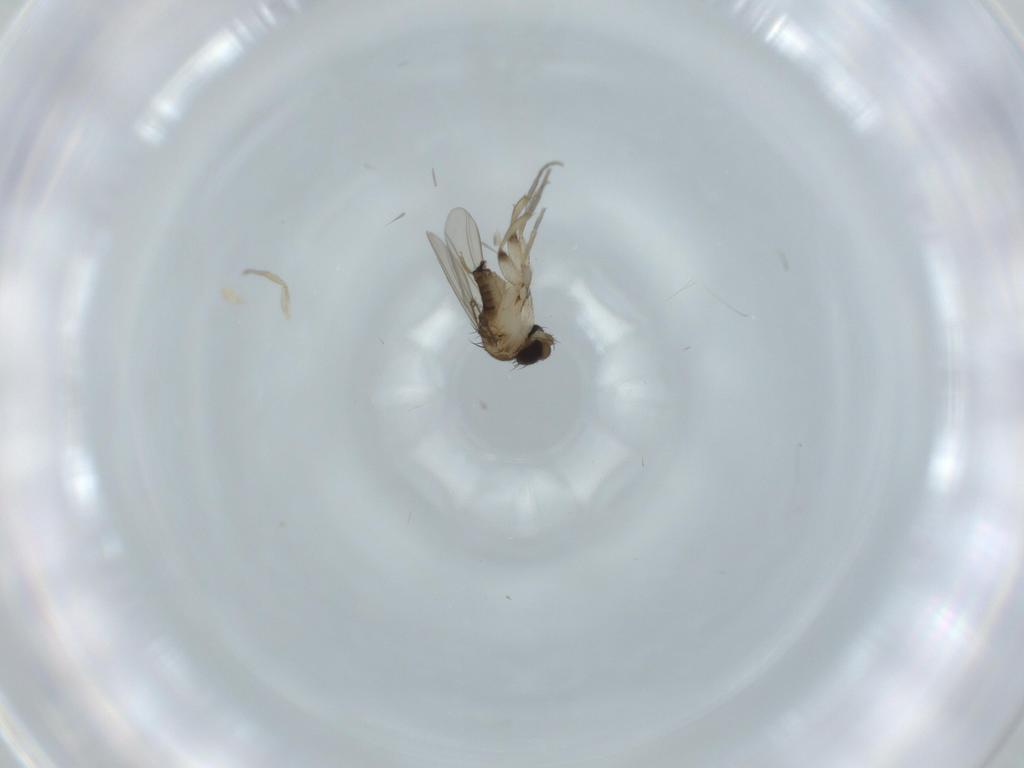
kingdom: Animalia
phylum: Arthropoda
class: Insecta
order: Diptera
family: Phoridae
